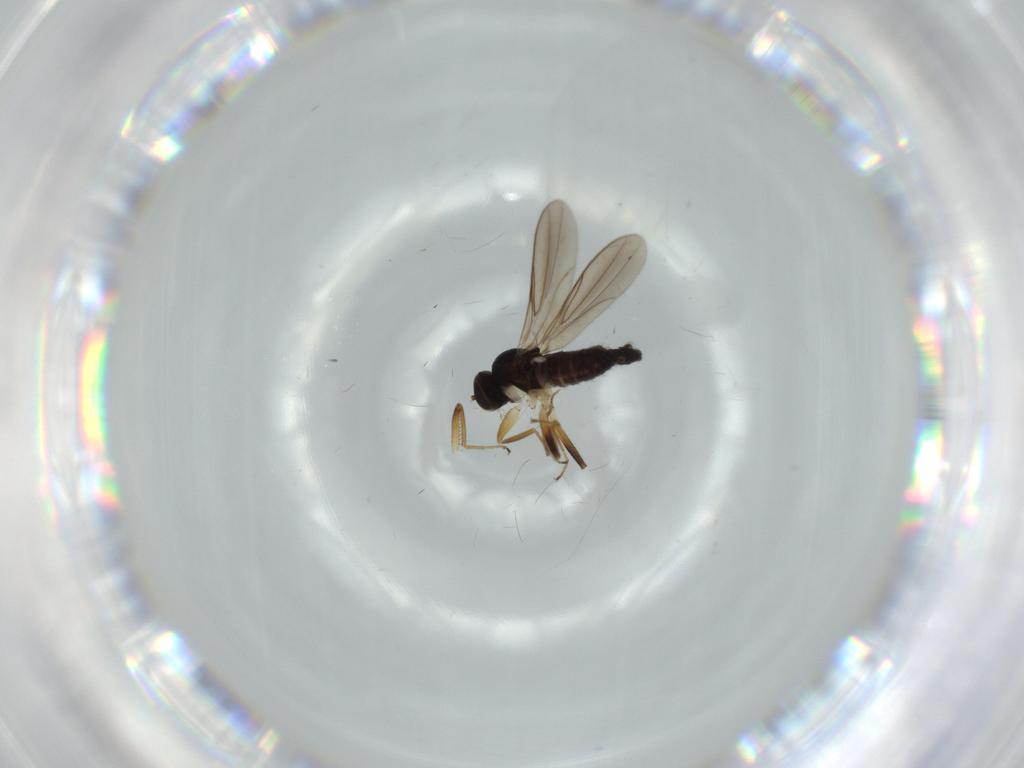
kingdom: Animalia
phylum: Arthropoda
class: Insecta
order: Diptera
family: Hybotidae
